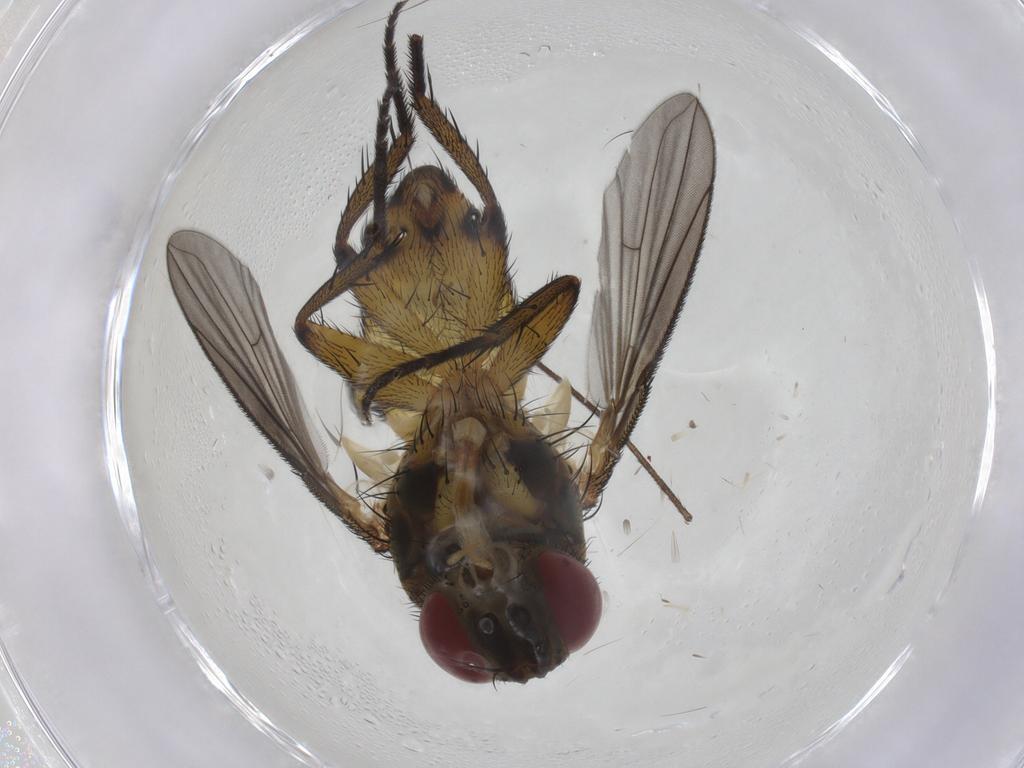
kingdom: Animalia
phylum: Arthropoda
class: Insecta
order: Diptera
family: Tachinidae
